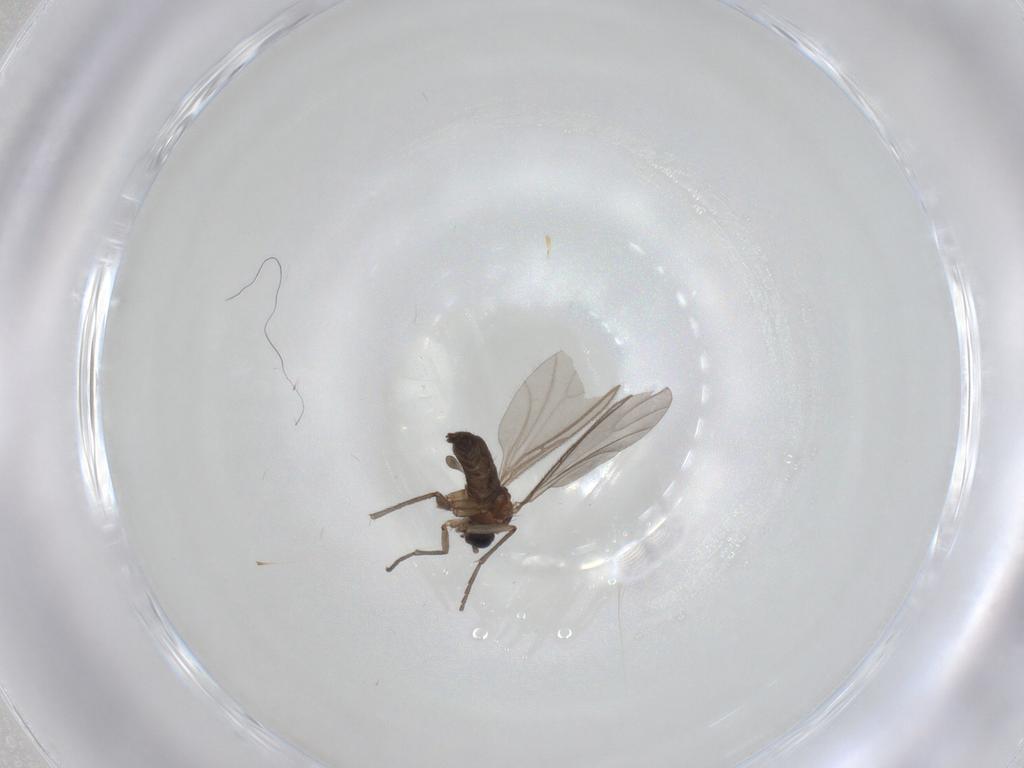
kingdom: Animalia
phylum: Arthropoda
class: Insecta
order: Diptera
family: Sciaridae
